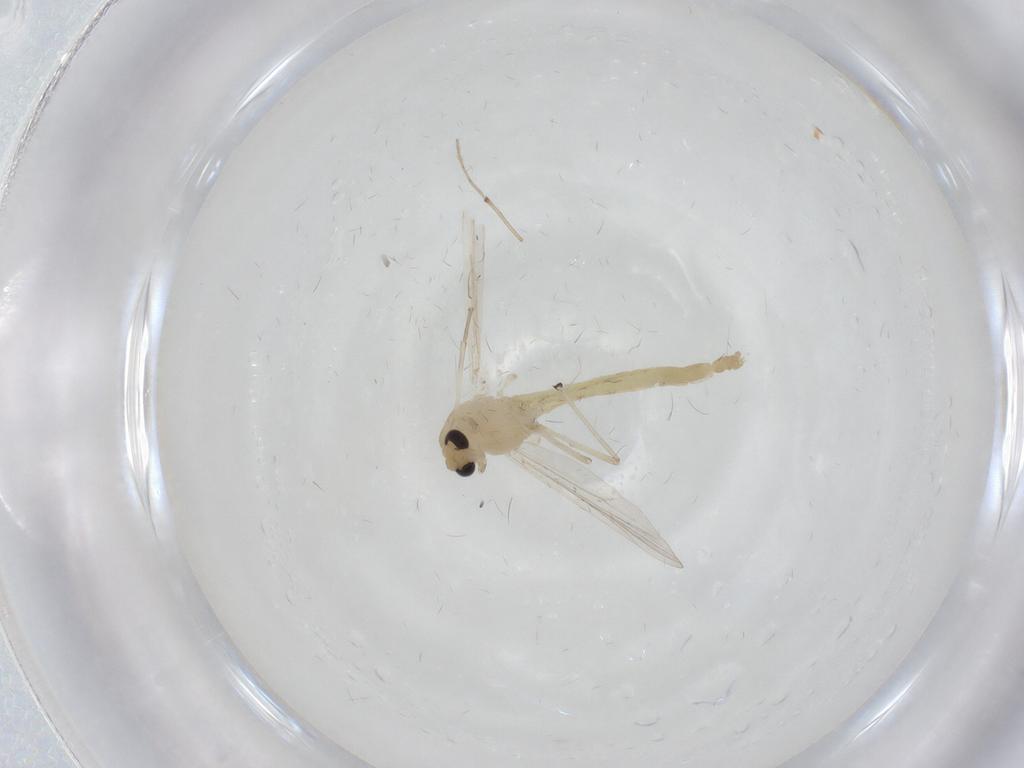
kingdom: Animalia
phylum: Arthropoda
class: Insecta
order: Diptera
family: Chironomidae
